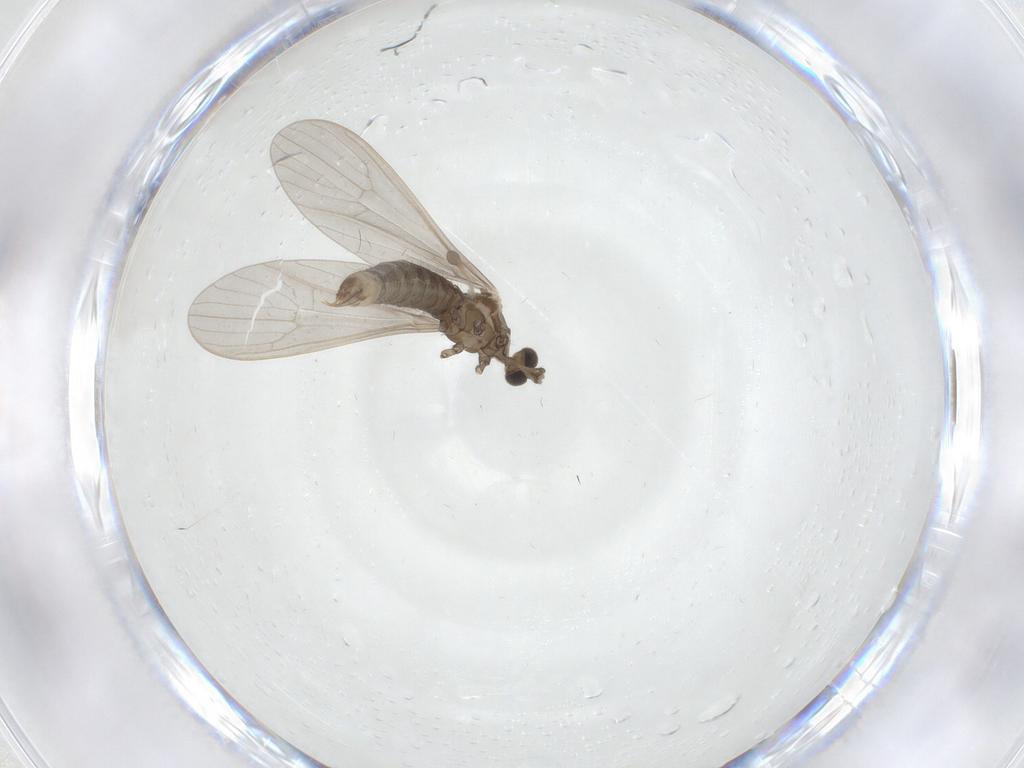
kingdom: Animalia
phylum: Arthropoda
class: Insecta
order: Diptera
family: Limoniidae
